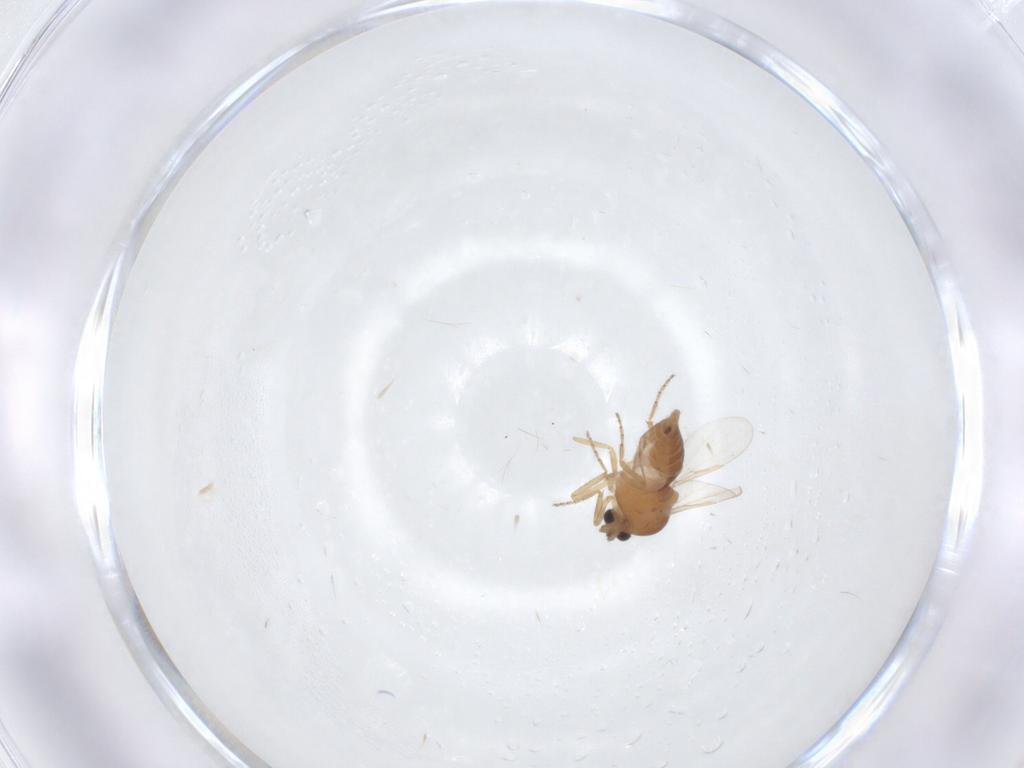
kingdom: Animalia
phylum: Arthropoda
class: Insecta
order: Diptera
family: Ceratopogonidae
